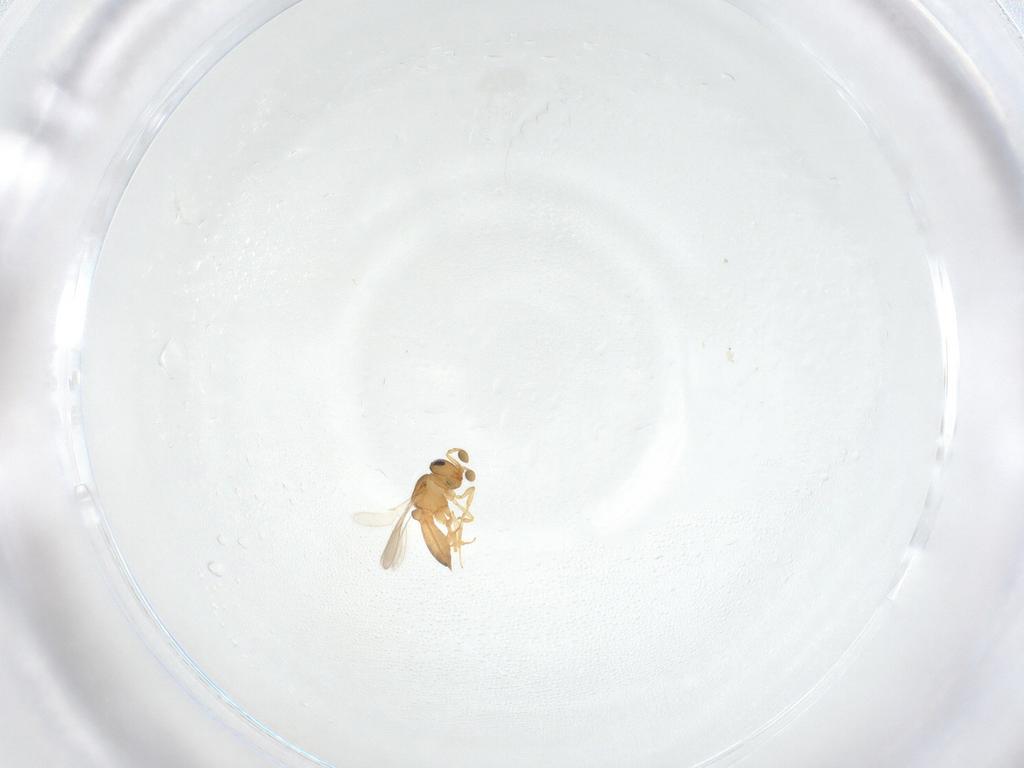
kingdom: Animalia
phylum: Arthropoda
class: Insecta
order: Hymenoptera
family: Scelionidae
